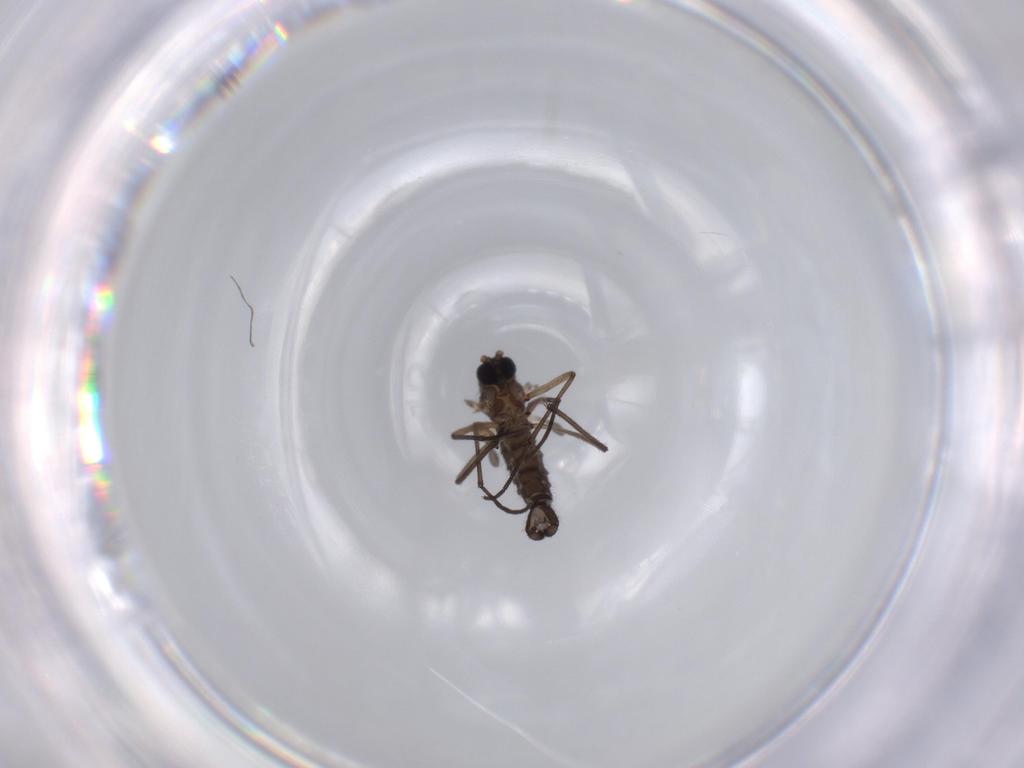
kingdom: Animalia
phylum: Arthropoda
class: Insecta
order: Diptera
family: Sciaridae
